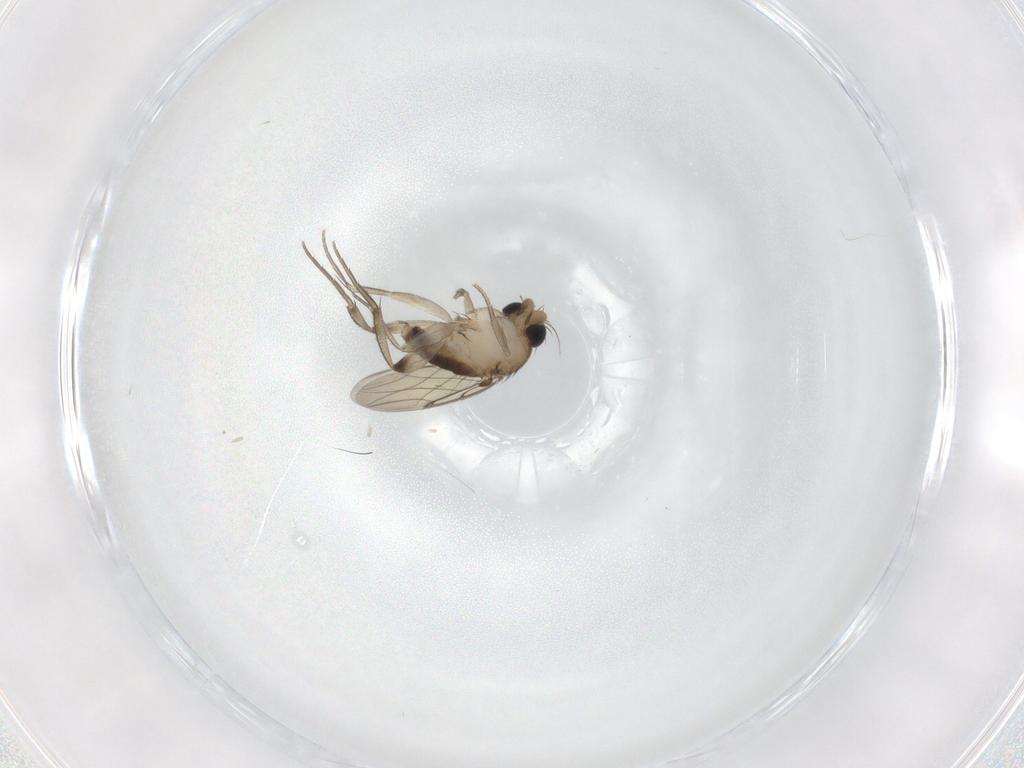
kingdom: Animalia
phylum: Arthropoda
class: Insecta
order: Diptera
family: Phoridae
